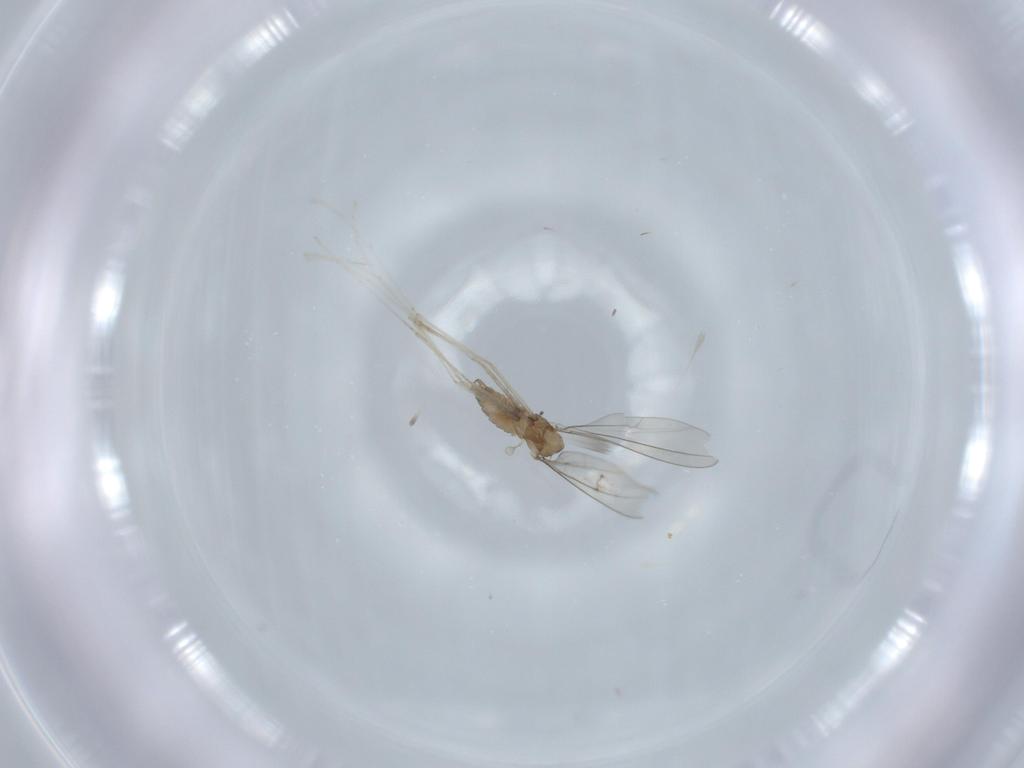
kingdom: Animalia
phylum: Arthropoda
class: Insecta
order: Diptera
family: Cecidomyiidae
